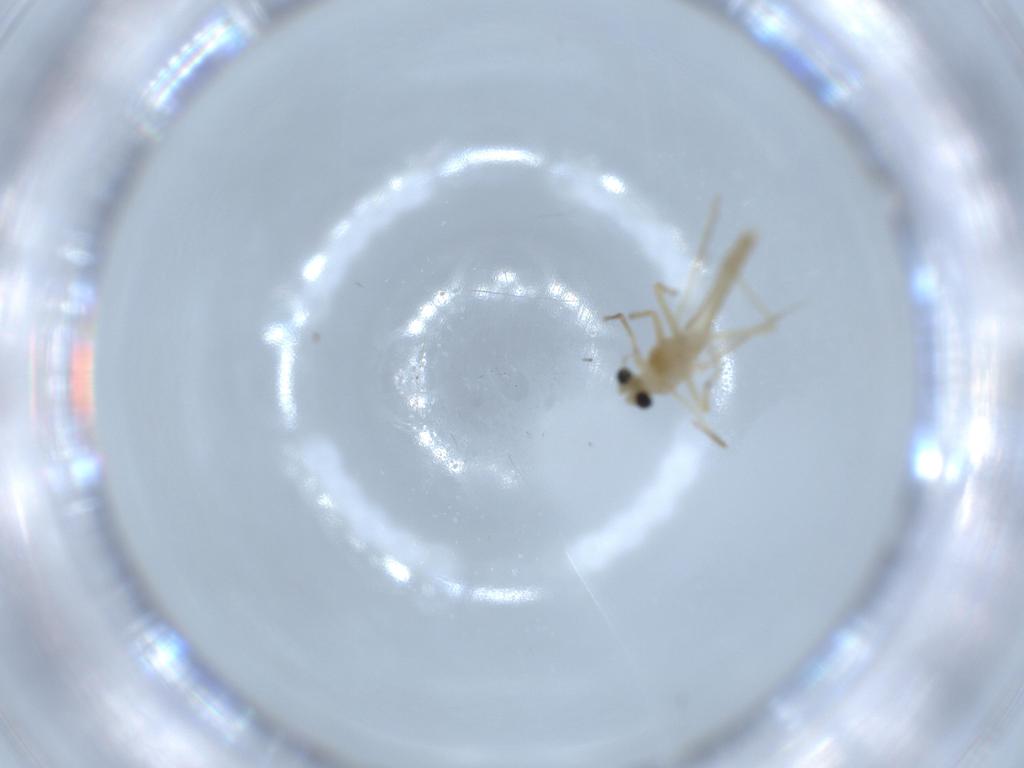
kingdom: Animalia
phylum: Arthropoda
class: Insecta
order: Diptera
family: Chironomidae
